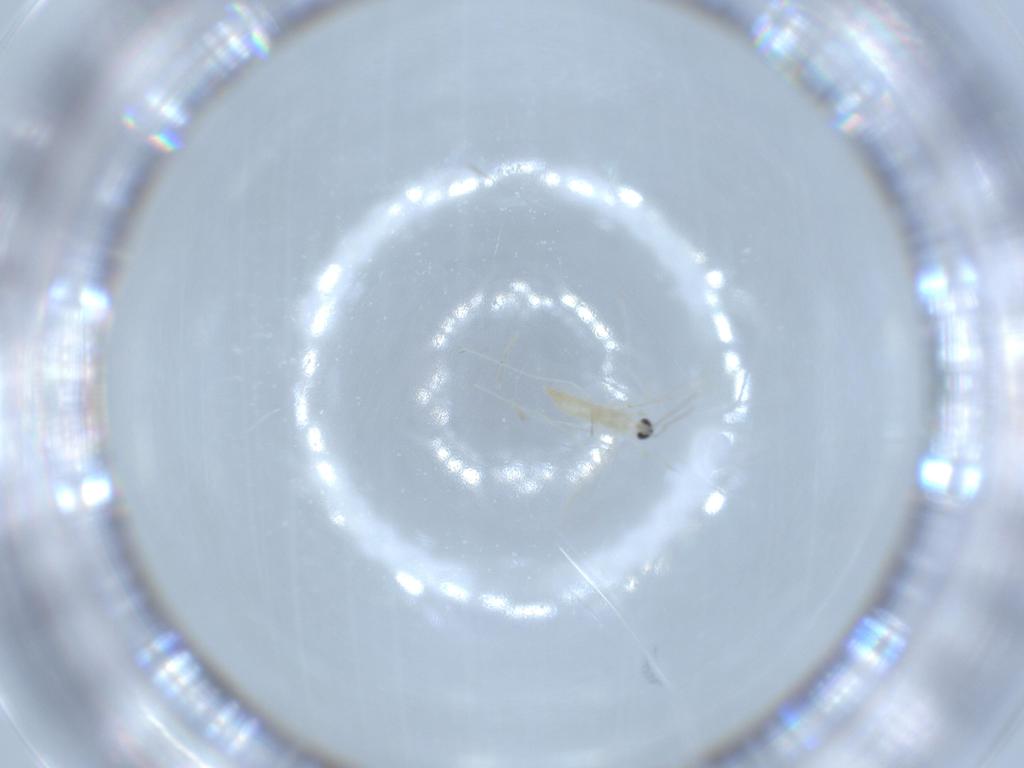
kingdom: Animalia
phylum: Arthropoda
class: Insecta
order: Diptera
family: Cecidomyiidae
